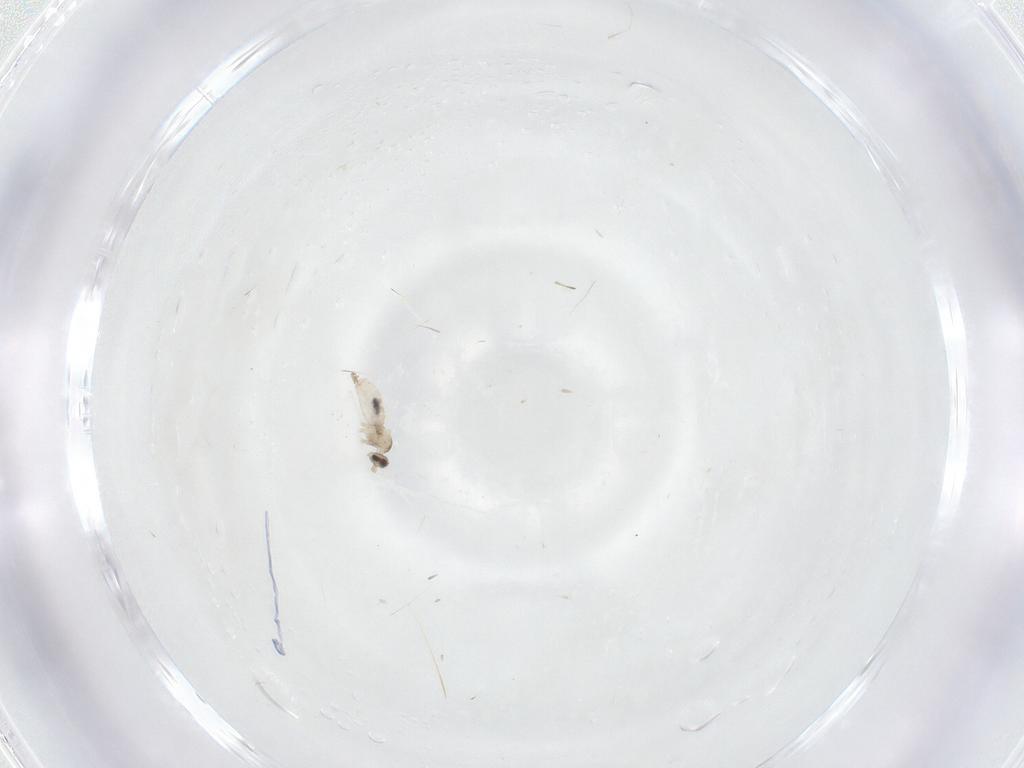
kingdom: Animalia
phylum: Arthropoda
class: Insecta
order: Diptera
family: Cecidomyiidae
